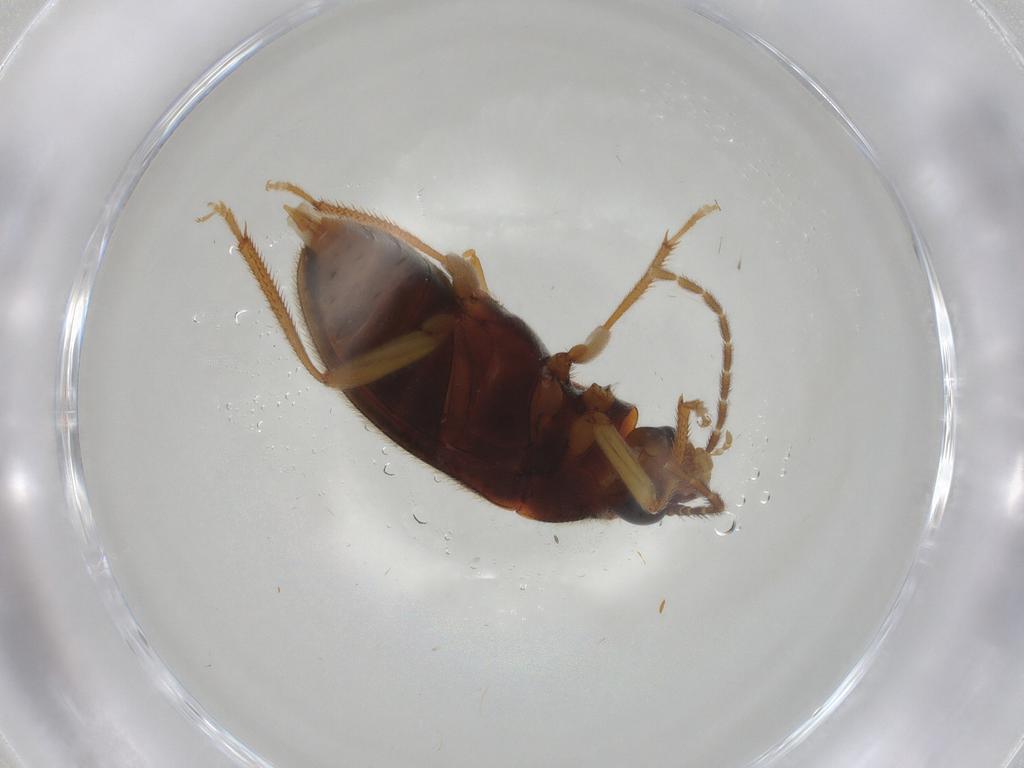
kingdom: Animalia
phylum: Arthropoda
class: Insecta
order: Coleoptera
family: Ptilodactylidae
